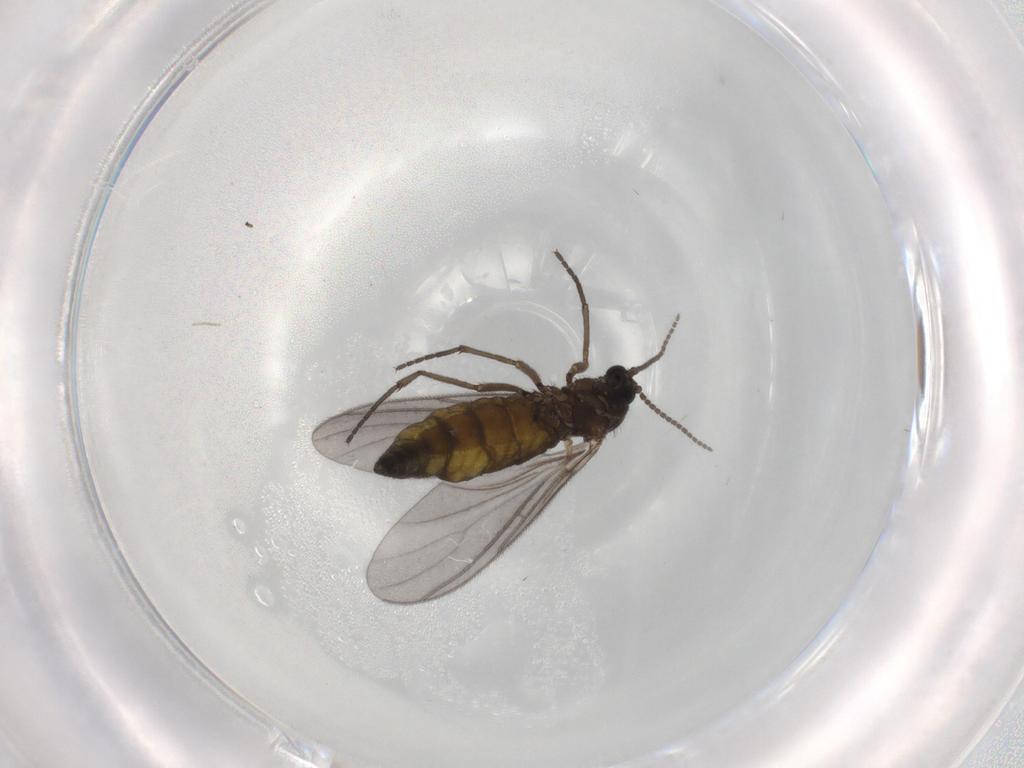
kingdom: Animalia
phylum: Arthropoda
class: Insecta
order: Diptera
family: Sciaridae
